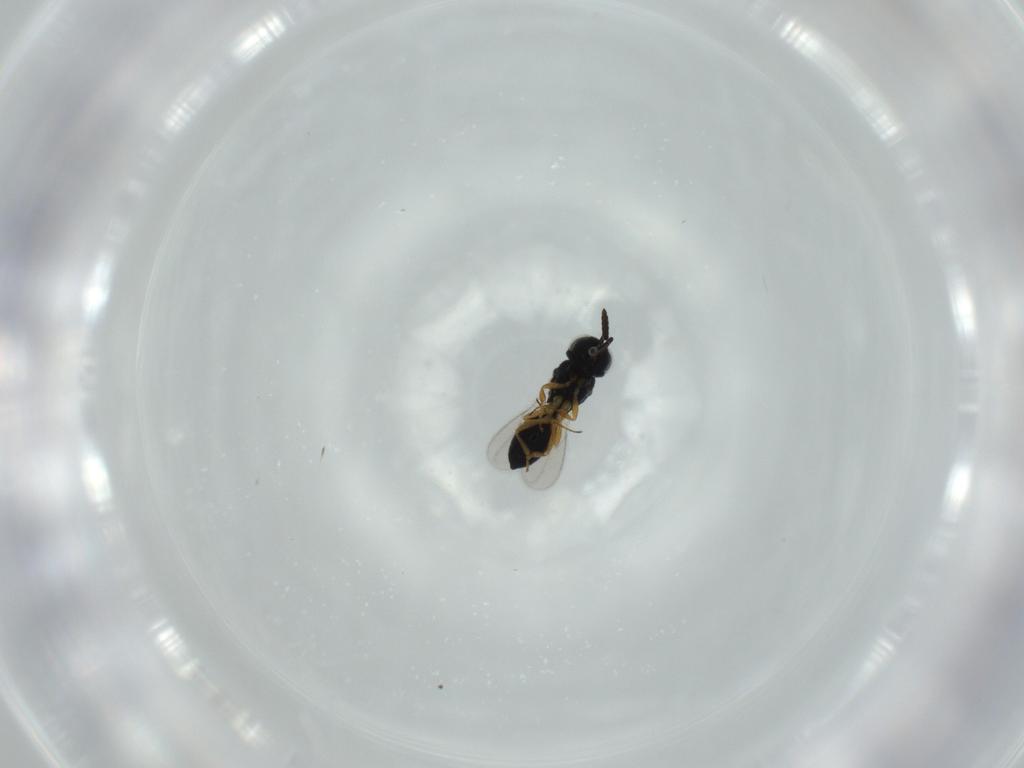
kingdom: Animalia
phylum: Arthropoda
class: Insecta
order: Hymenoptera
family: Scelionidae
